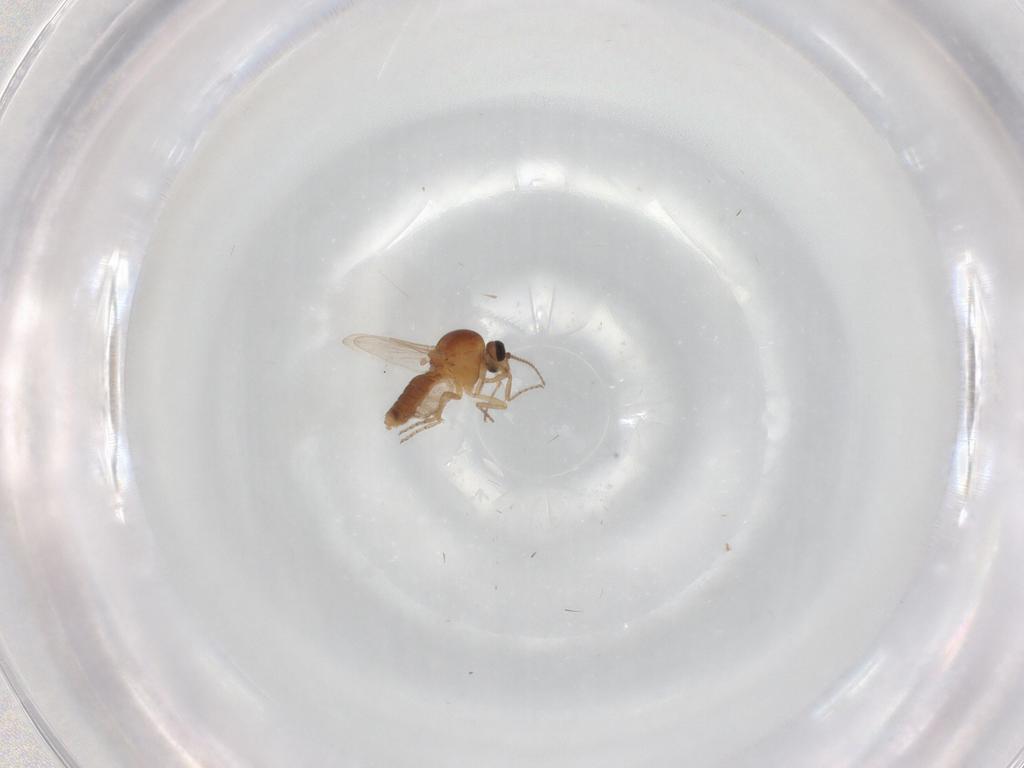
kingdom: Animalia
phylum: Arthropoda
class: Insecta
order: Diptera
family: Ceratopogonidae
